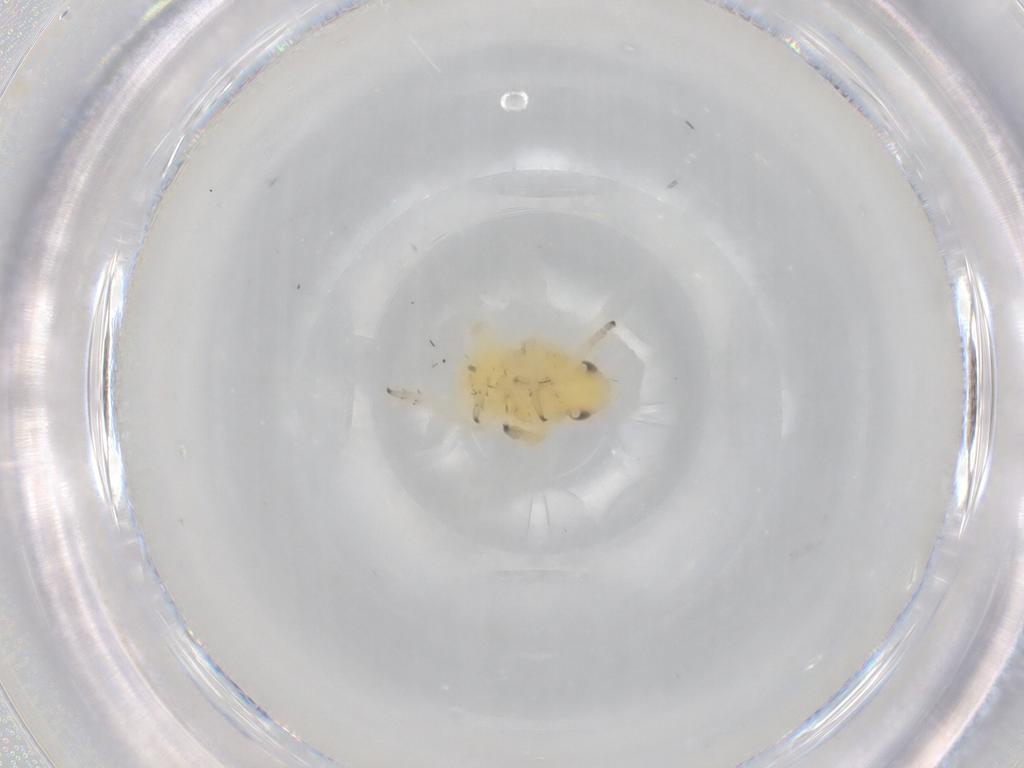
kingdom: Animalia
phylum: Arthropoda
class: Insecta
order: Hemiptera
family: Caliscelidae
